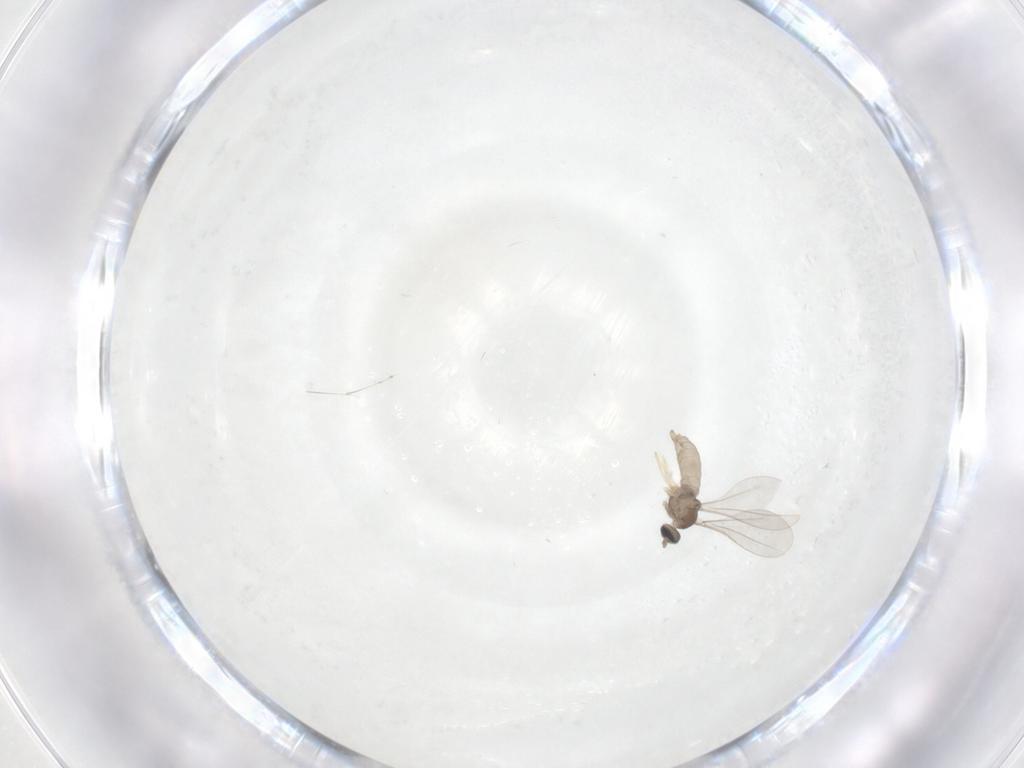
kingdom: Animalia
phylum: Arthropoda
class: Insecta
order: Diptera
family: Cecidomyiidae
